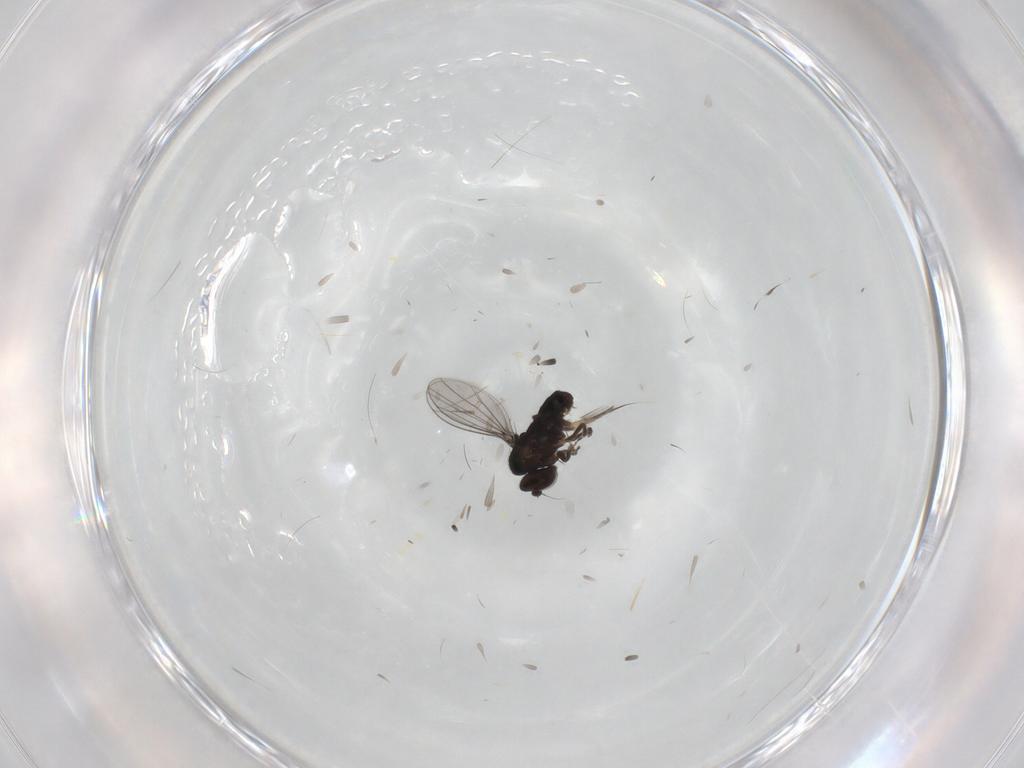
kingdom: Animalia
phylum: Arthropoda
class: Insecta
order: Diptera
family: Dolichopodidae
